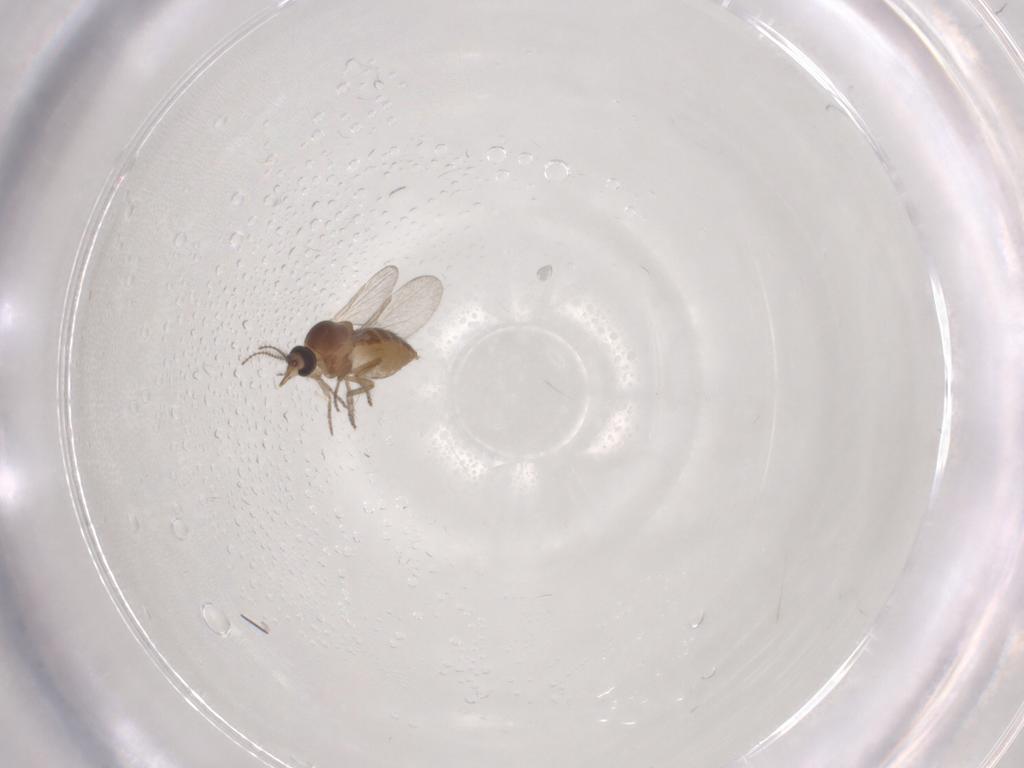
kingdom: Animalia
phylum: Arthropoda
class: Insecta
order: Diptera
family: Ceratopogonidae
